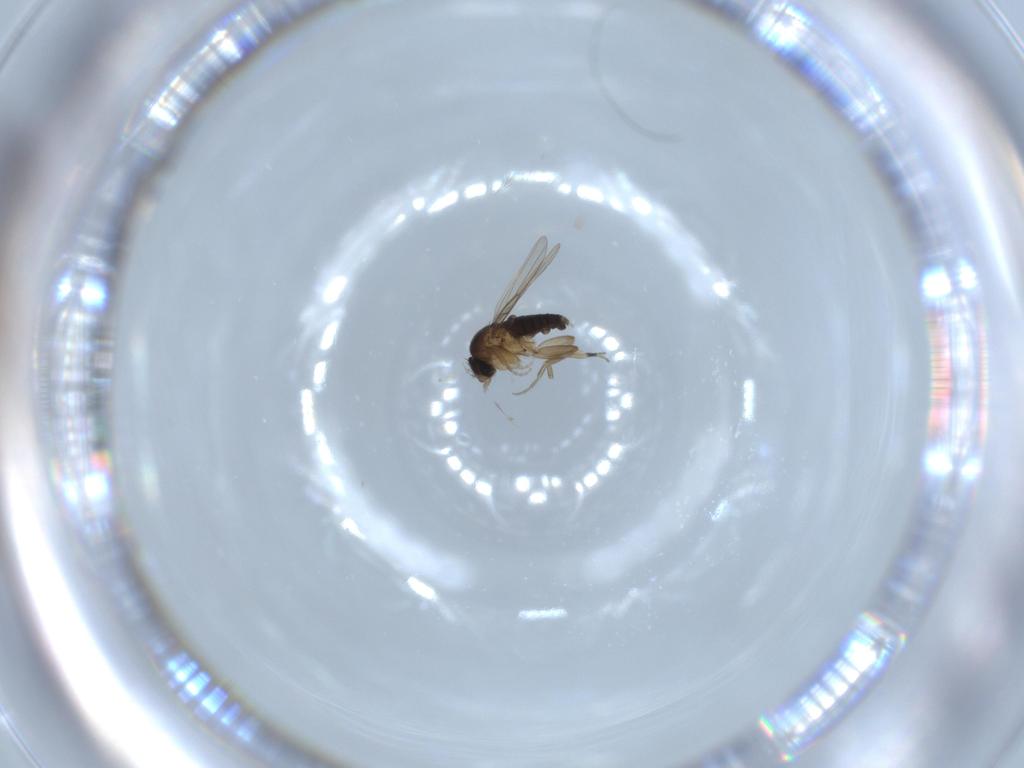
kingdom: Animalia
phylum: Arthropoda
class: Insecta
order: Diptera
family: Phoridae
